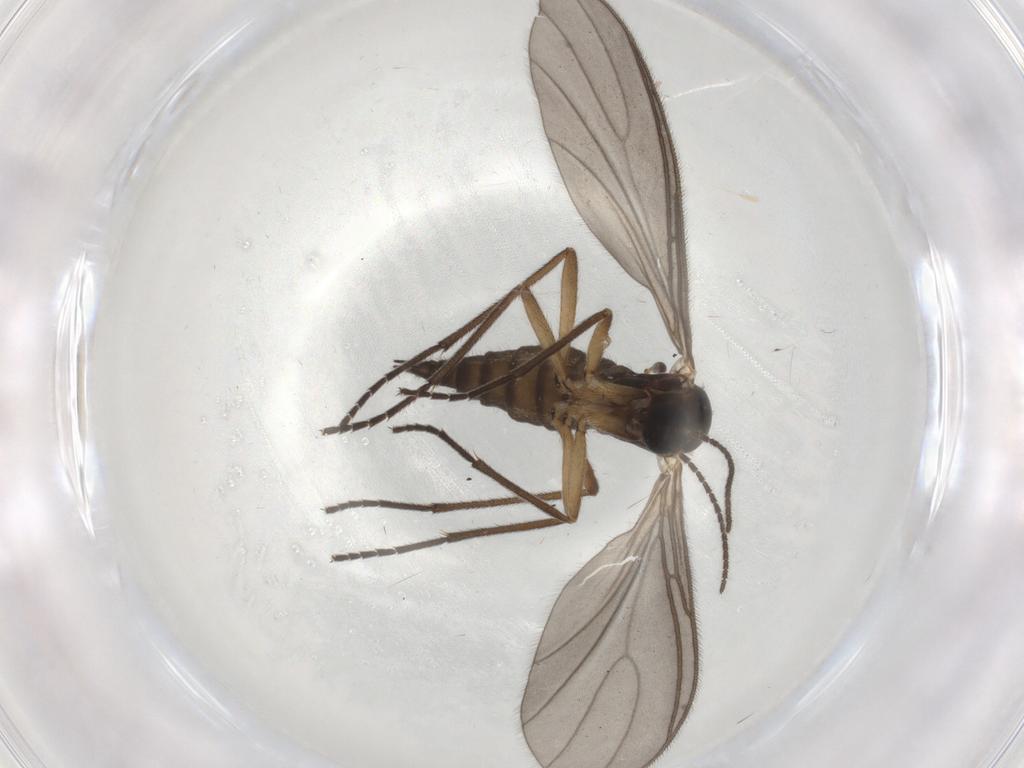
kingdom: Animalia
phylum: Arthropoda
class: Insecta
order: Diptera
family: Sciaridae
